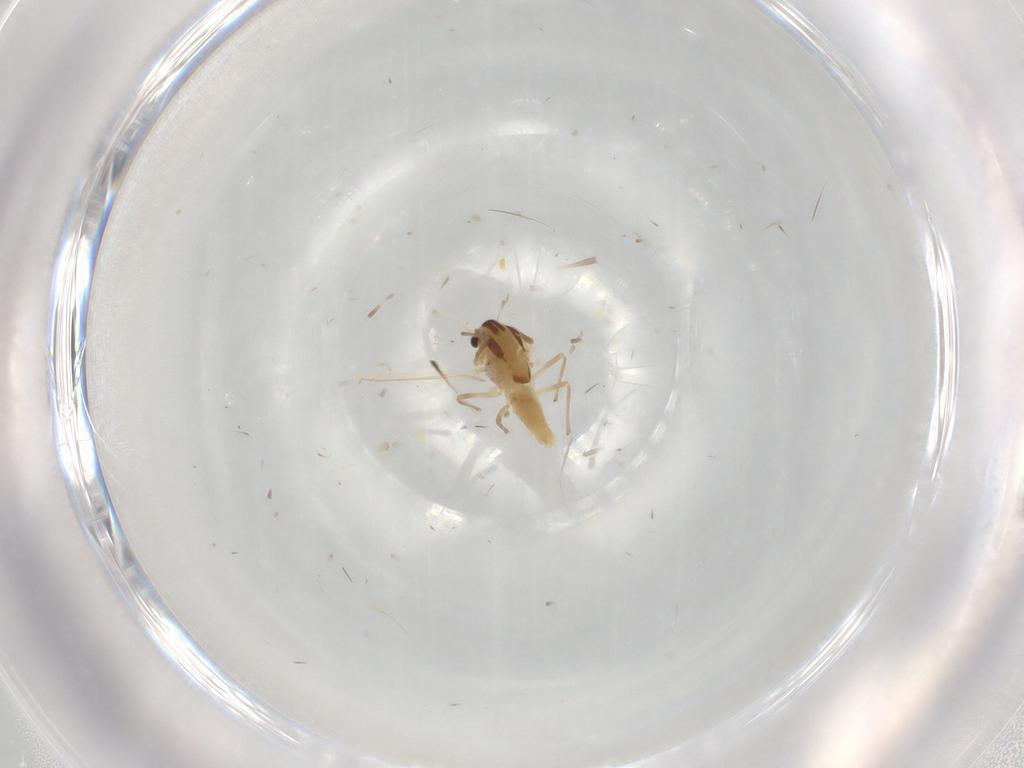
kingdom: Animalia
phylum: Arthropoda
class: Insecta
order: Diptera
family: Chironomidae
